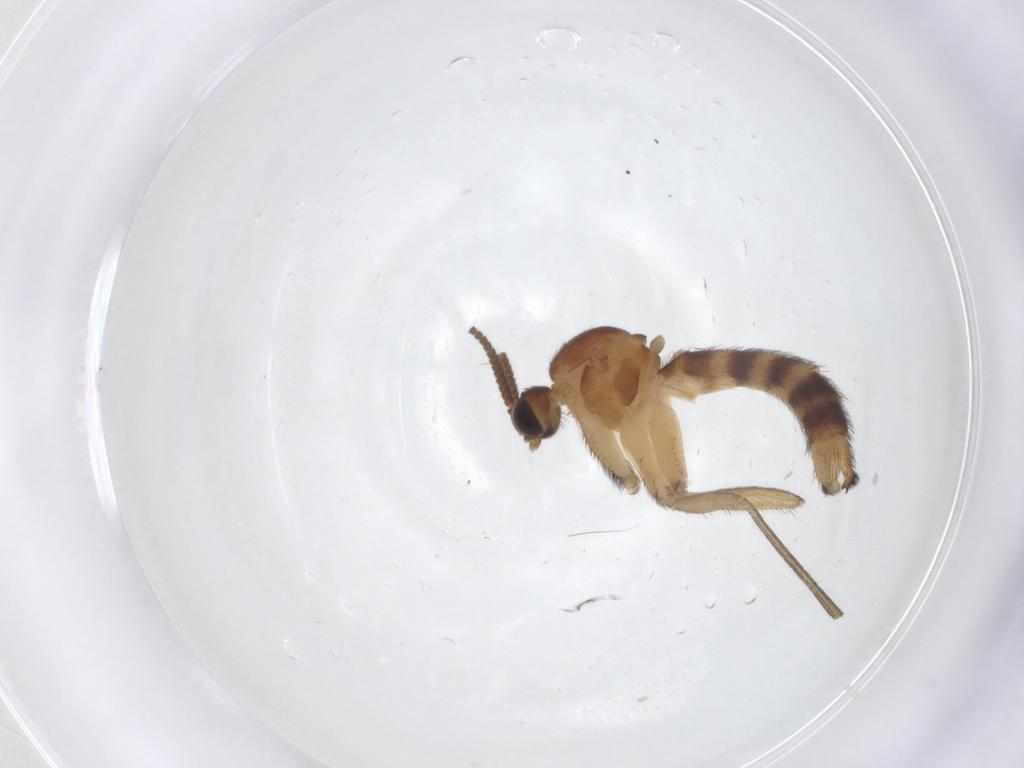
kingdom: Animalia
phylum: Arthropoda
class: Insecta
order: Diptera
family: Keroplatidae
